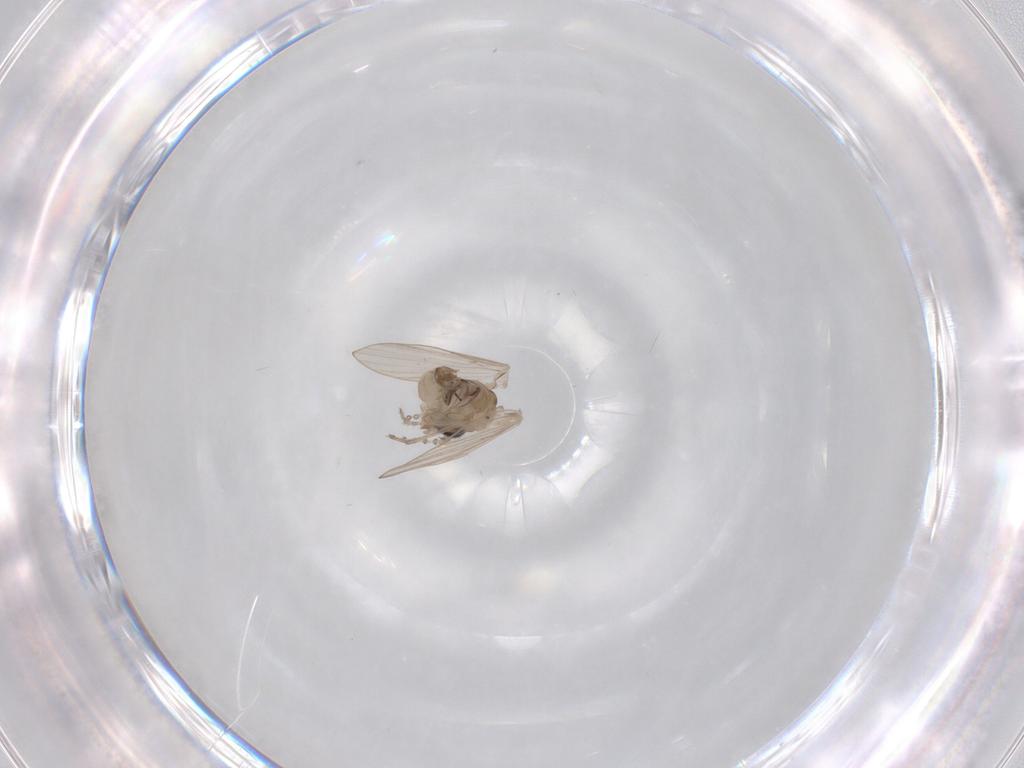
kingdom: Animalia
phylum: Arthropoda
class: Insecta
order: Diptera
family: Psychodidae
